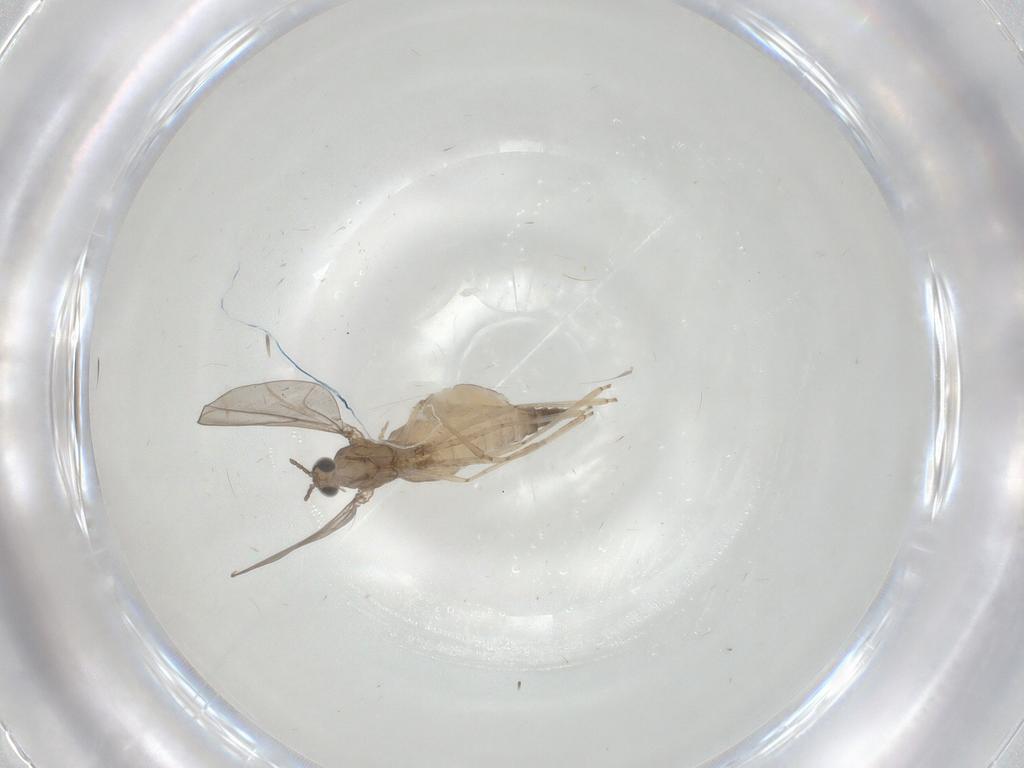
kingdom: Animalia
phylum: Arthropoda
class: Insecta
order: Diptera
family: Cecidomyiidae
